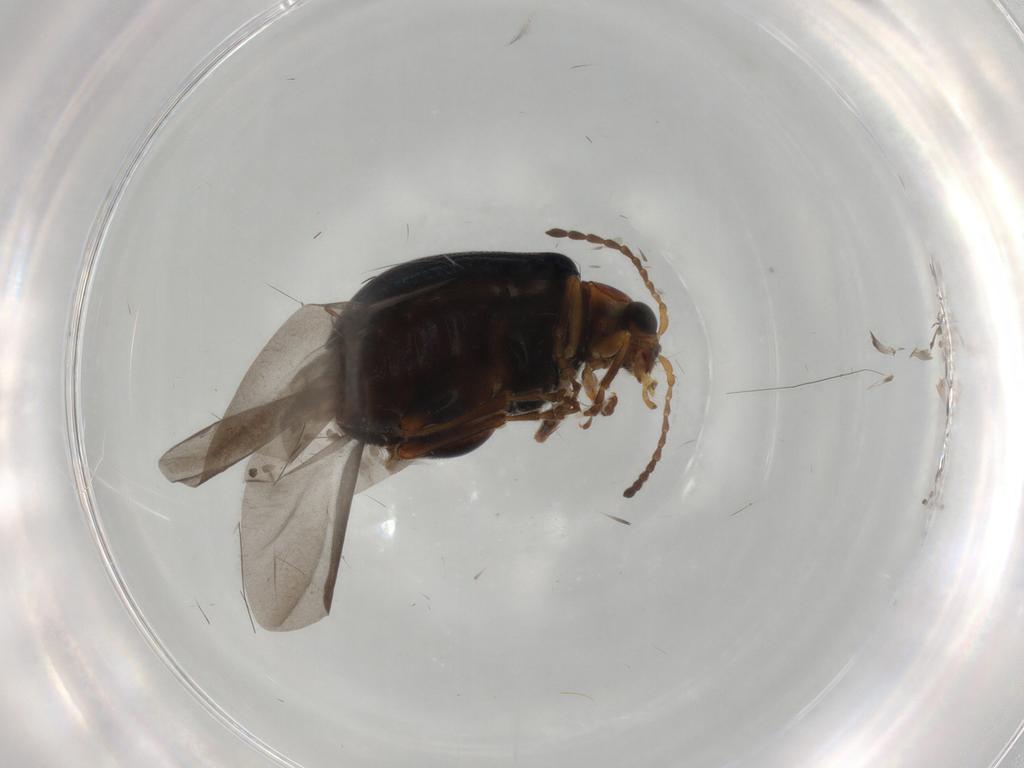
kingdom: Animalia
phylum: Arthropoda
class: Insecta
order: Coleoptera
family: Chrysomelidae
